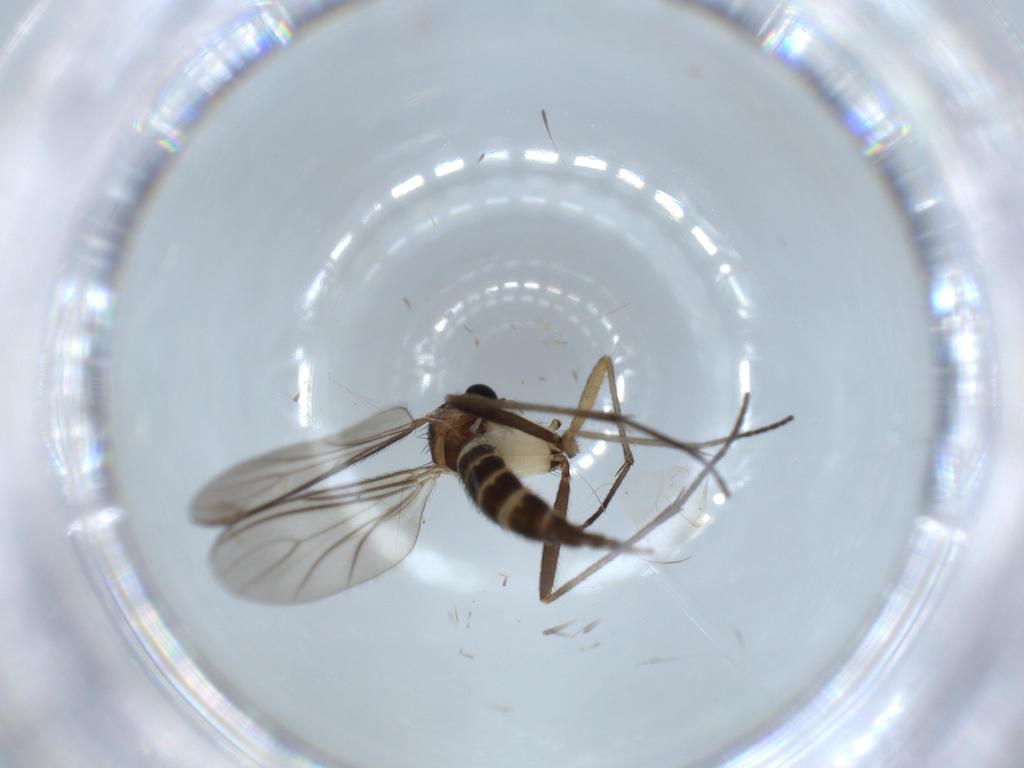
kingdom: Animalia
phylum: Arthropoda
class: Insecta
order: Diptera
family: Sciaridae
